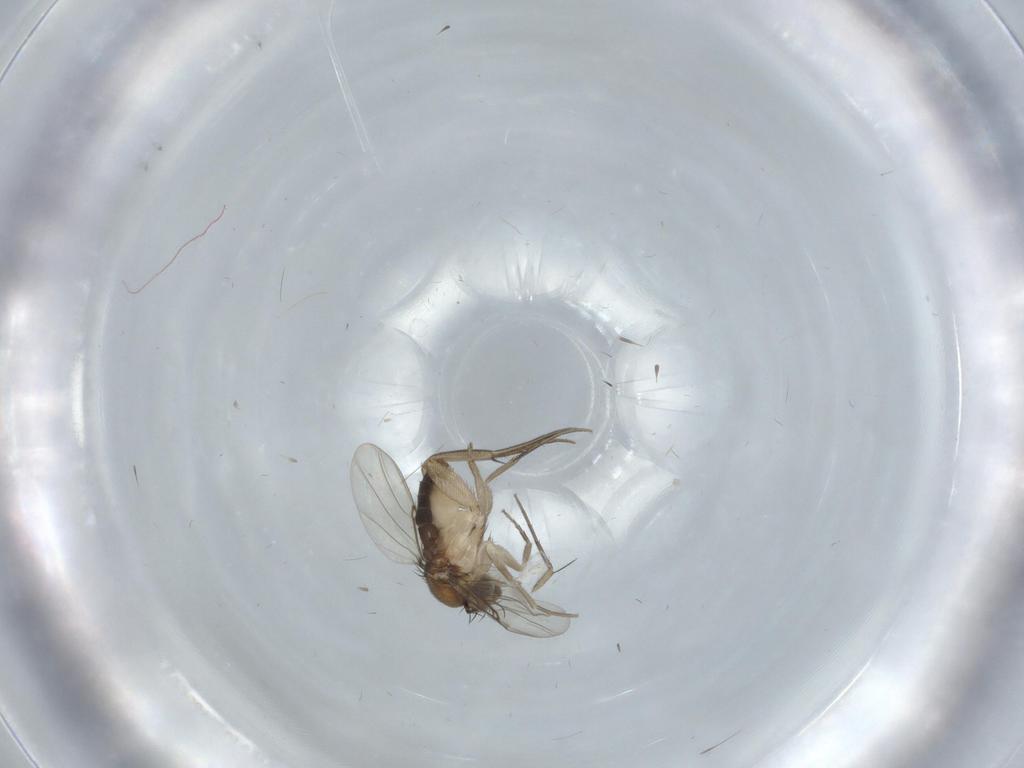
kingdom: Animalia
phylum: Arthropoda
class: Insecta
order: Diptera
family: Phoridae
